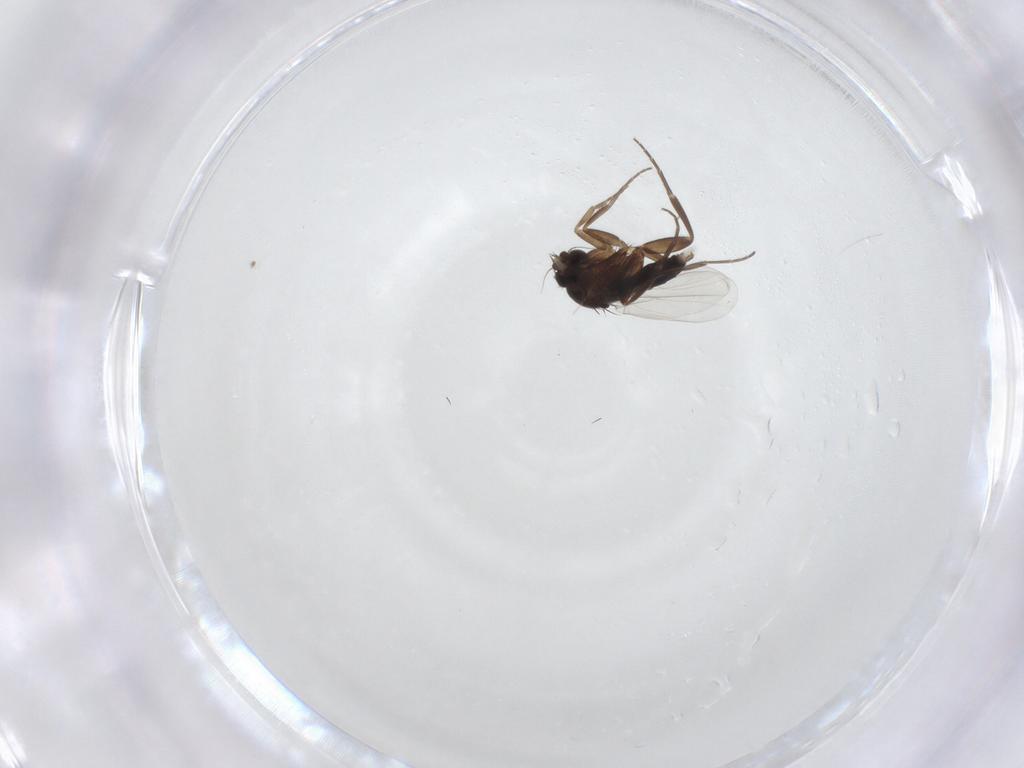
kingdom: Animalia
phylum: Arthropoda
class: Insecta
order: Diptera
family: Phoridae
